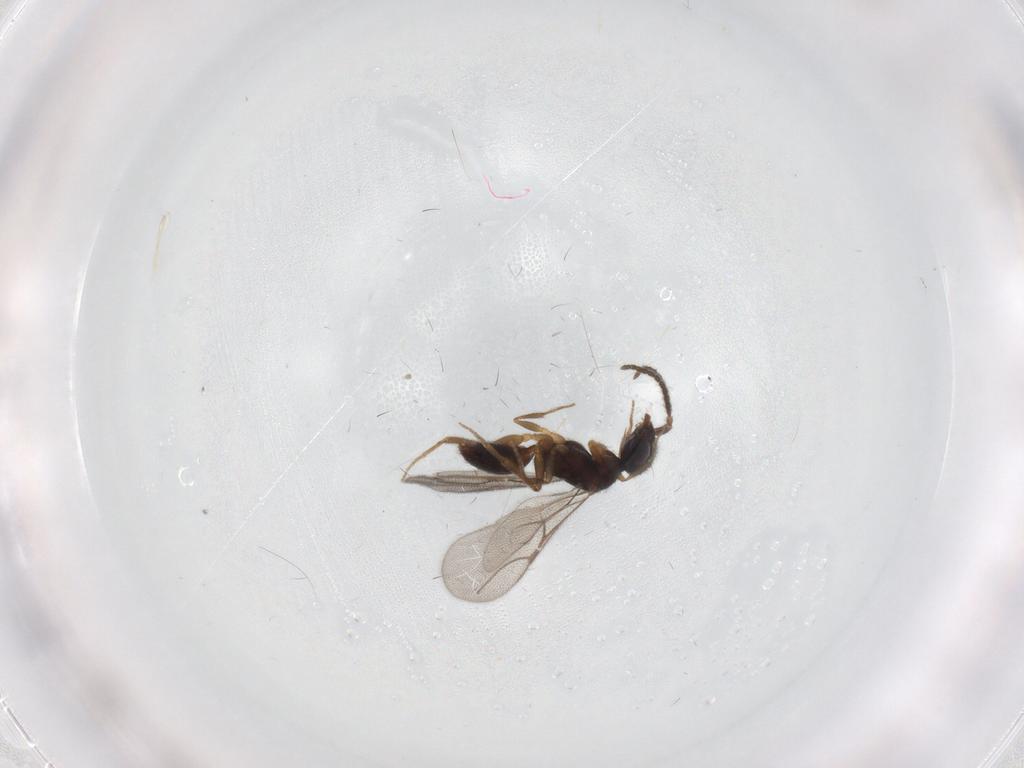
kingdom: Animalia
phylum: Arthropoda
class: Insecta
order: Hymenoptera
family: Bethylidae
